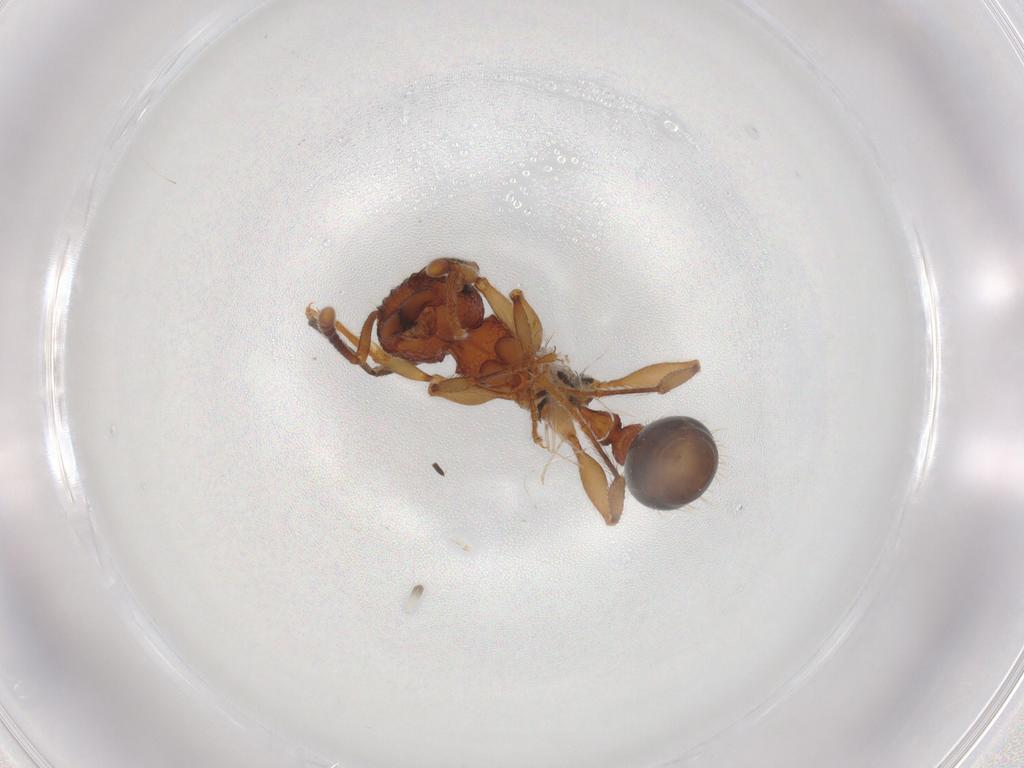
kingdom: Animalia
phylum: Arthropoda
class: Insecta
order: Hymenoptera
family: Formicidae
